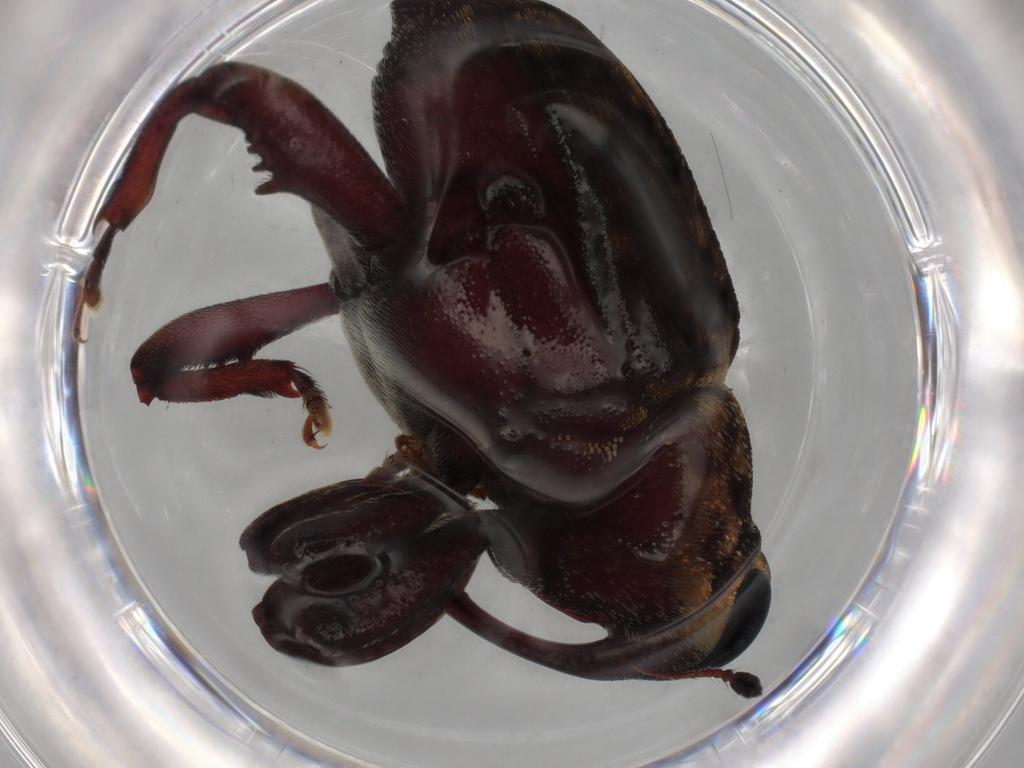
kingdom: Animalia
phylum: Arthropoda
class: Insecta
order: Coleoptera
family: Curculionidae
